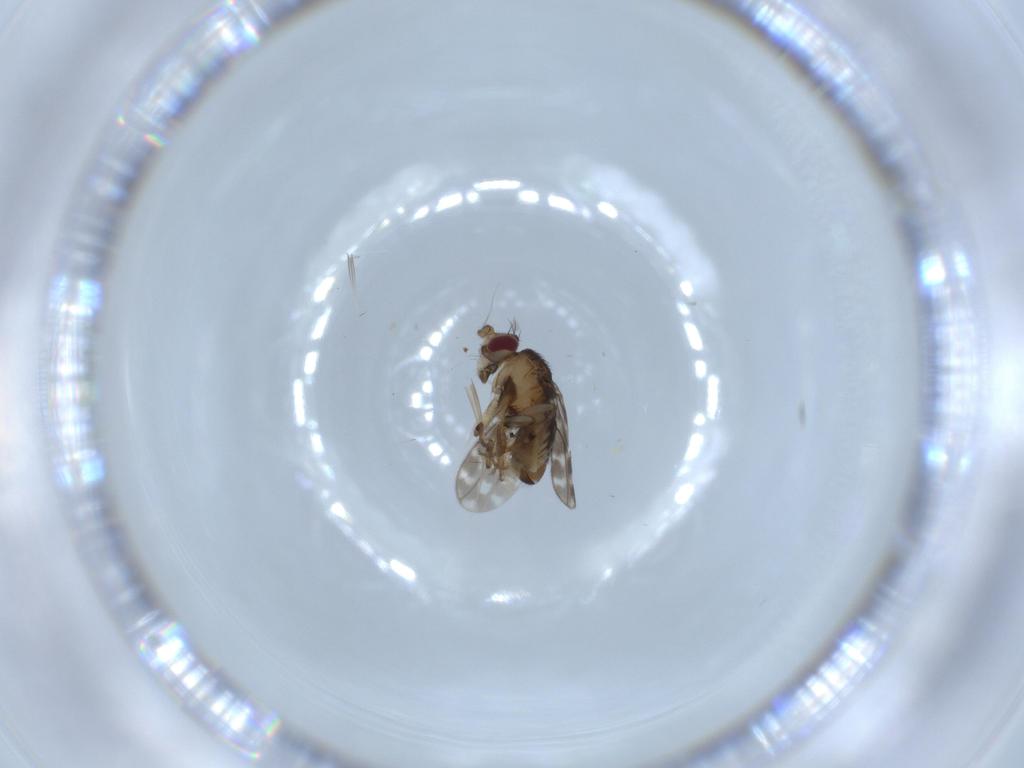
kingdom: Animalia
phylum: Arthropoda
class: Insecta
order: Diptera
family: Sphaeroceridae
